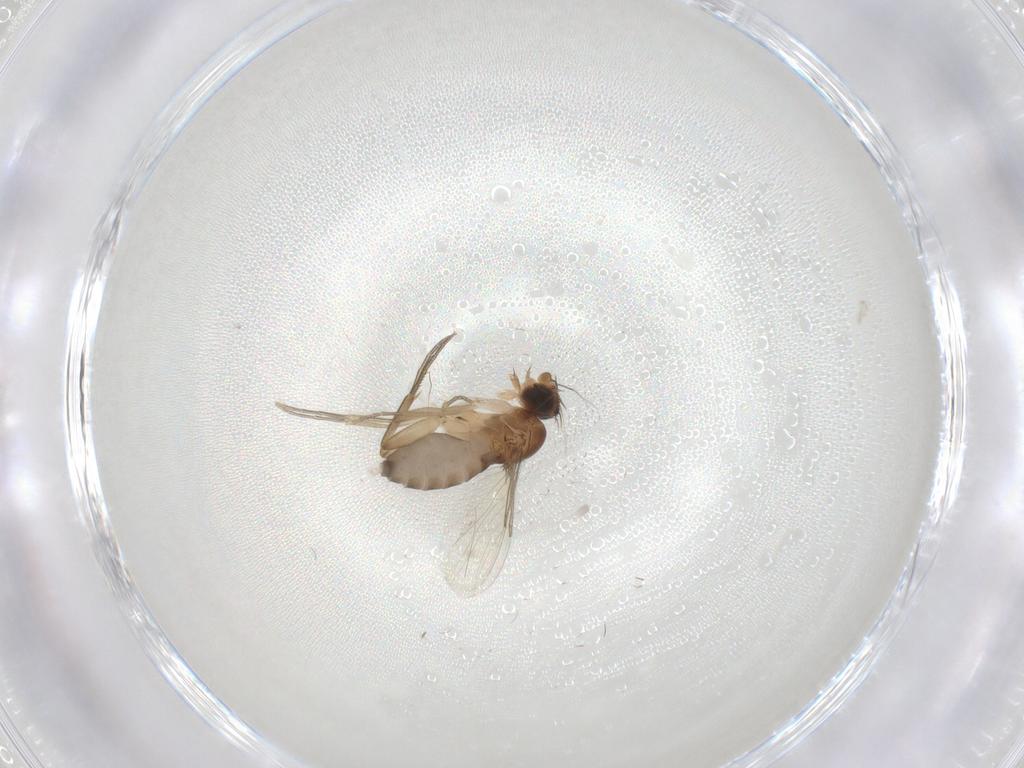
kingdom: Animalia
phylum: Arthropoda
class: Insecta
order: Diptera
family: Phoridae
